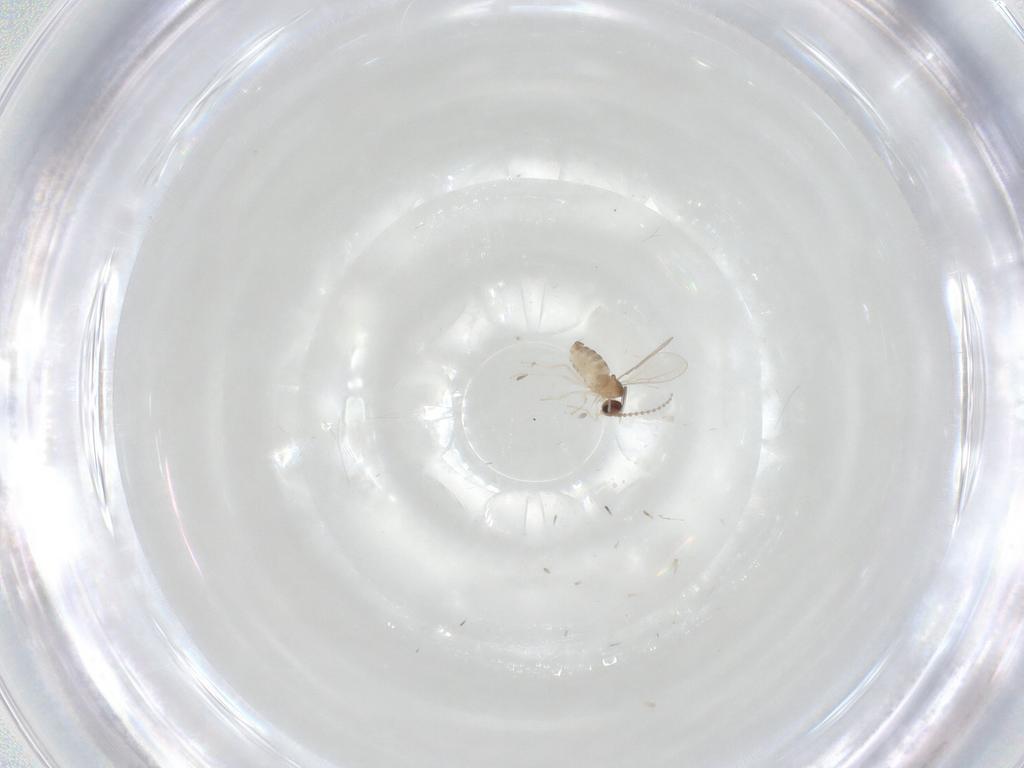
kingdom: Animalia
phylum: Arthropoda
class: Insecta
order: Diptera
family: Cecidomyiidae
